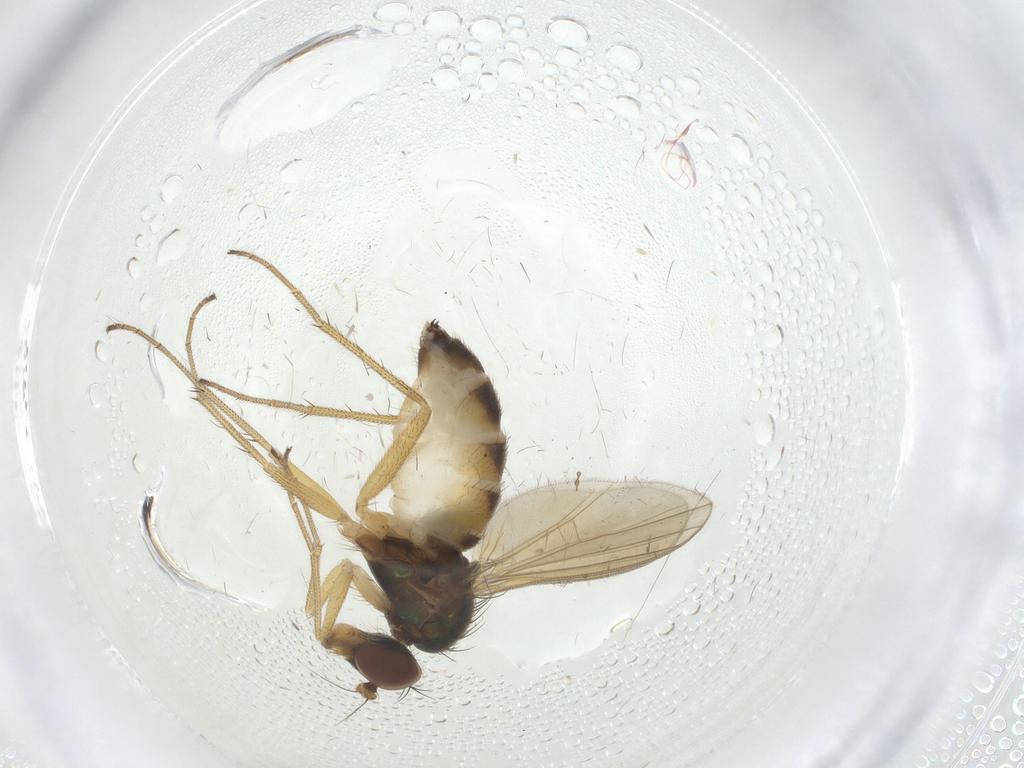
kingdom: Animalia
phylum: Arthropoda
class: Insecta
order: Diptera
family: Dolichopodidae
